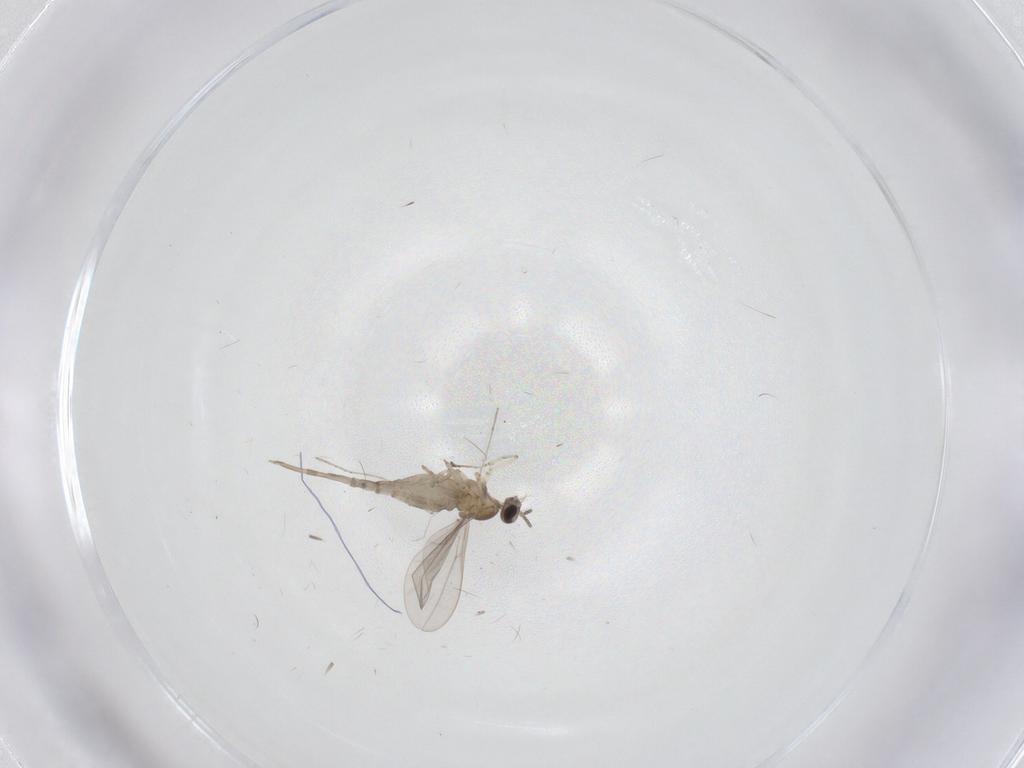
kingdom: Animalia
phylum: Arthropoda
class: Insecta
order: Diptera
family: Cecidomyiidae
